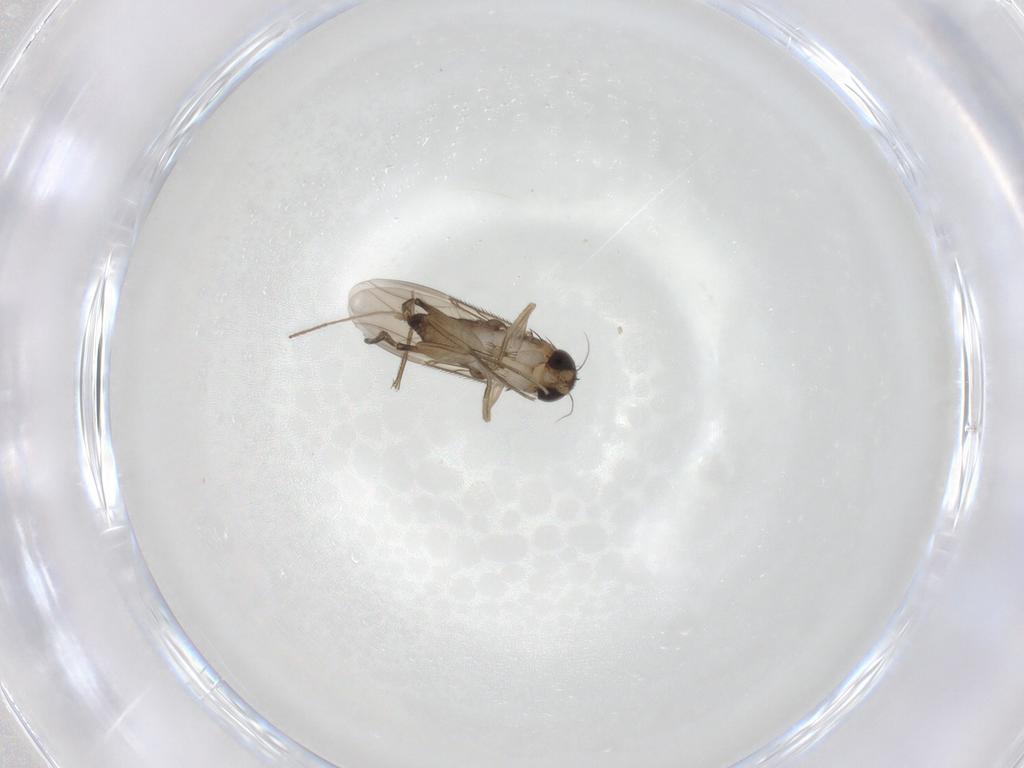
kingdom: Animalia
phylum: Arthropoda
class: Insecta
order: Diptera
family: Phoridae
